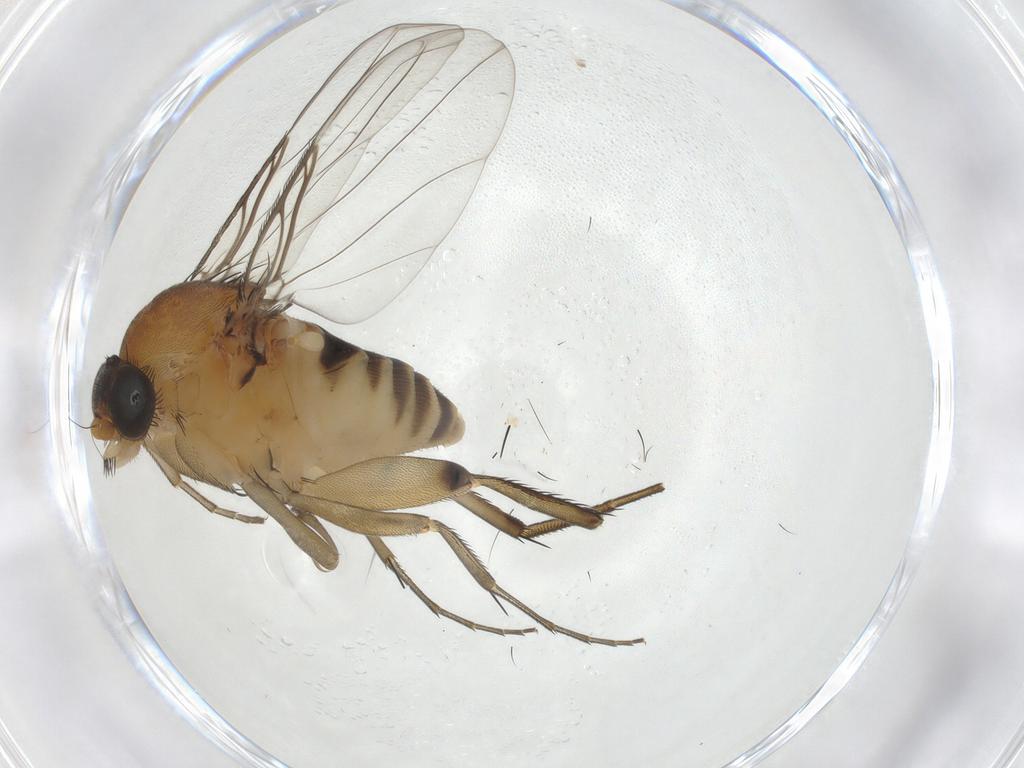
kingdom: Animalia
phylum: Arthropoda
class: Insecta
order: Diptera
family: Phoridae
